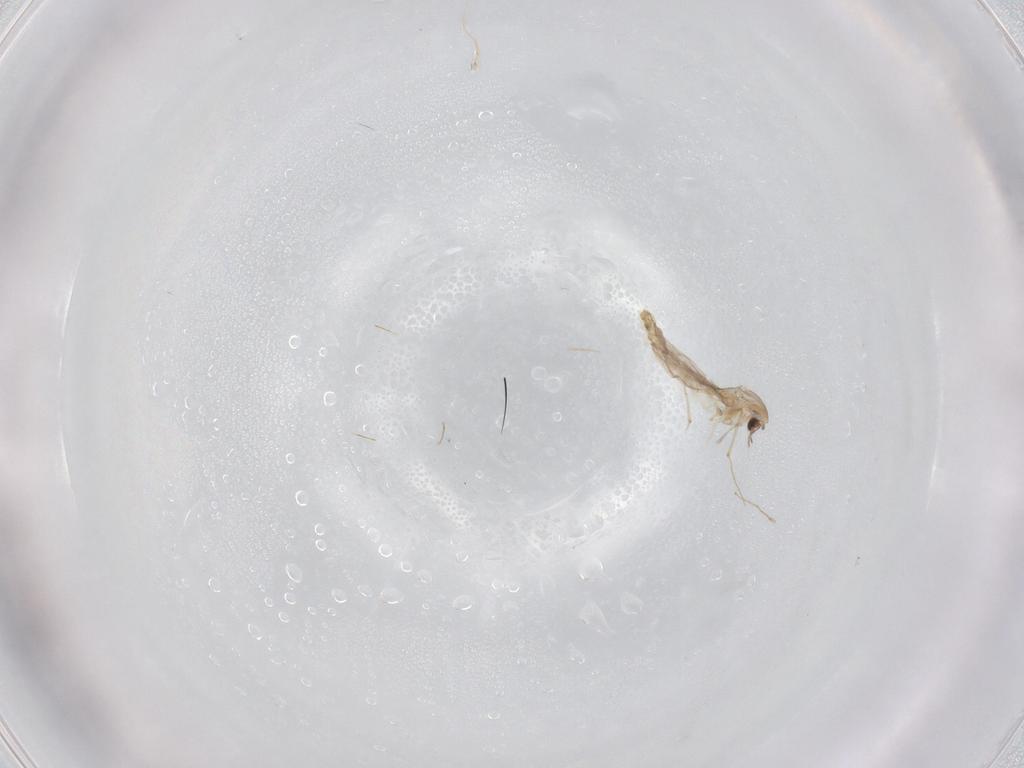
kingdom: Animalia
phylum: Arthropoda
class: Insecta
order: Diptera
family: Chironomidae
